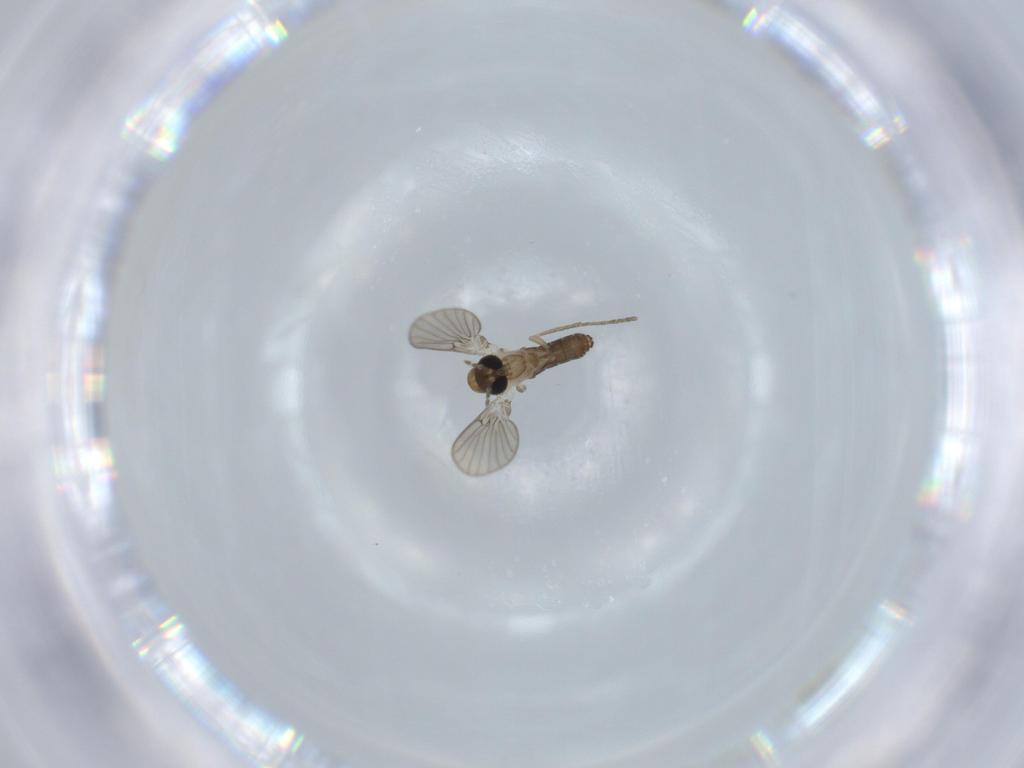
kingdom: Animalia
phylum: Arthropoda
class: Insecta
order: Diptera
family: Psychodidae
